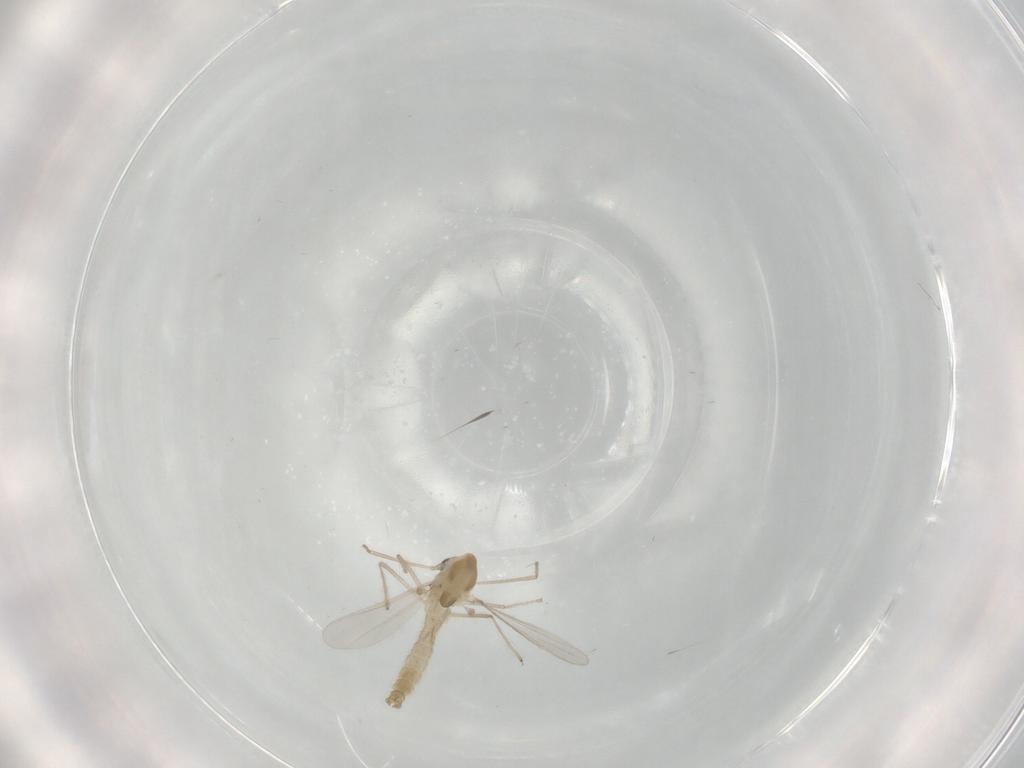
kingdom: Animalia
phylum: Arthropoda
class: Insecta
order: Diptera
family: Chironomidae
